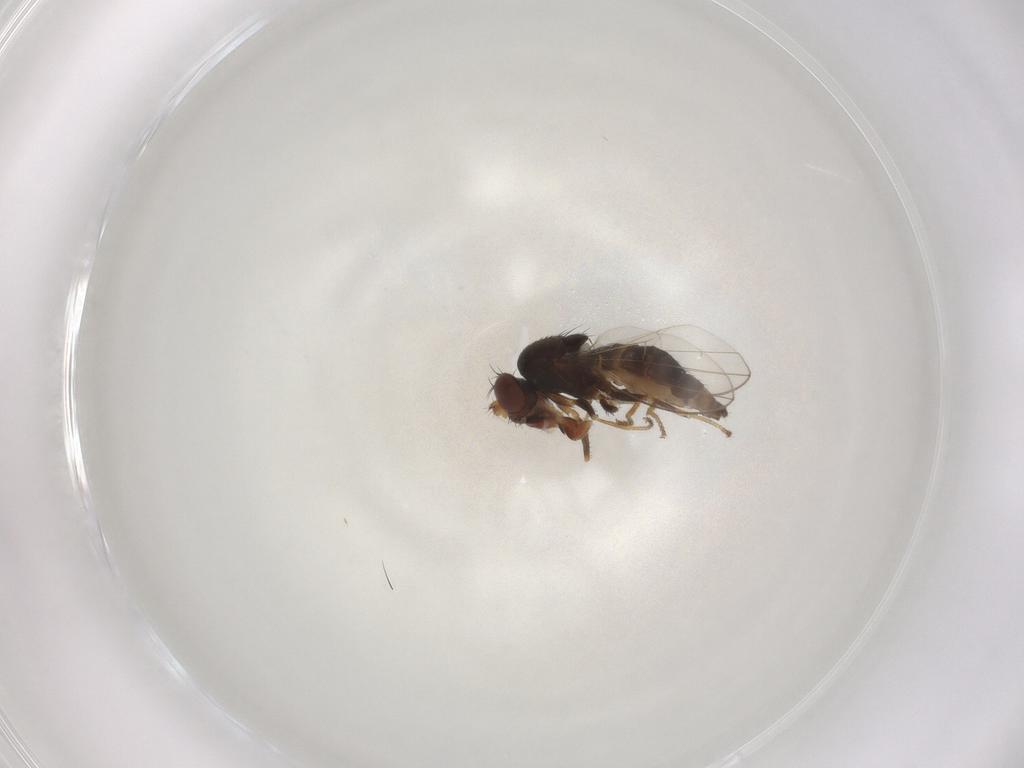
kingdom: Animalia
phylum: Arthropoda
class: Insecta
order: Diptera
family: Ephydridae
